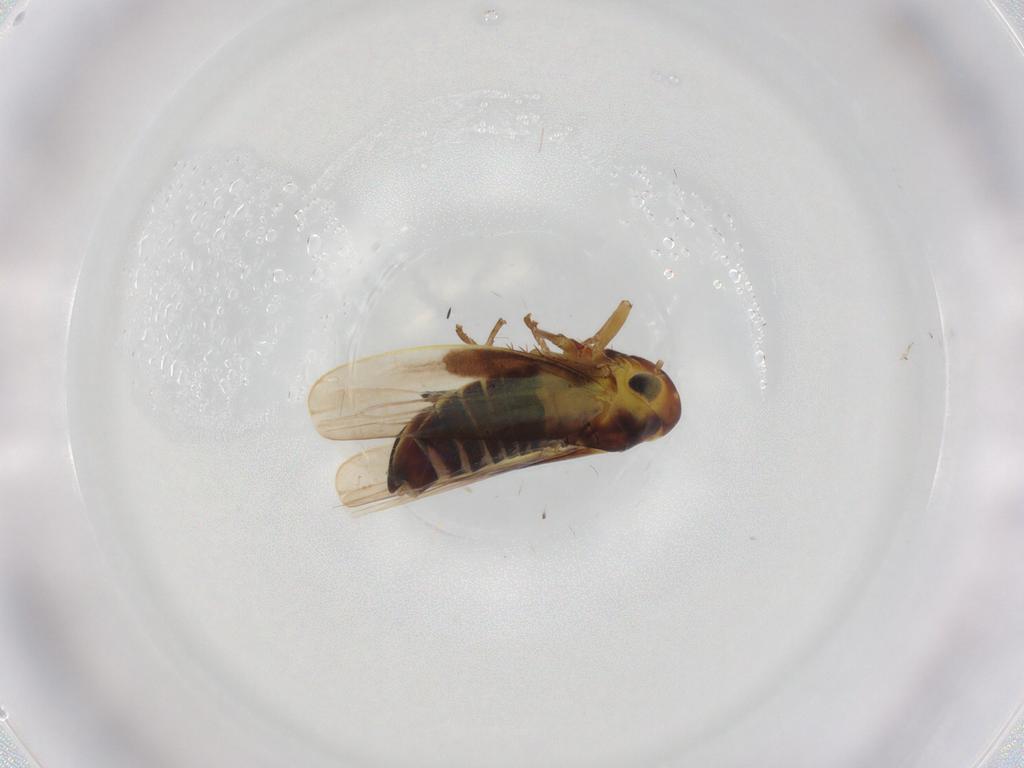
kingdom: Animalia
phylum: Arthropoda
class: Insecta
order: Hemiptera
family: Cicadellidae
